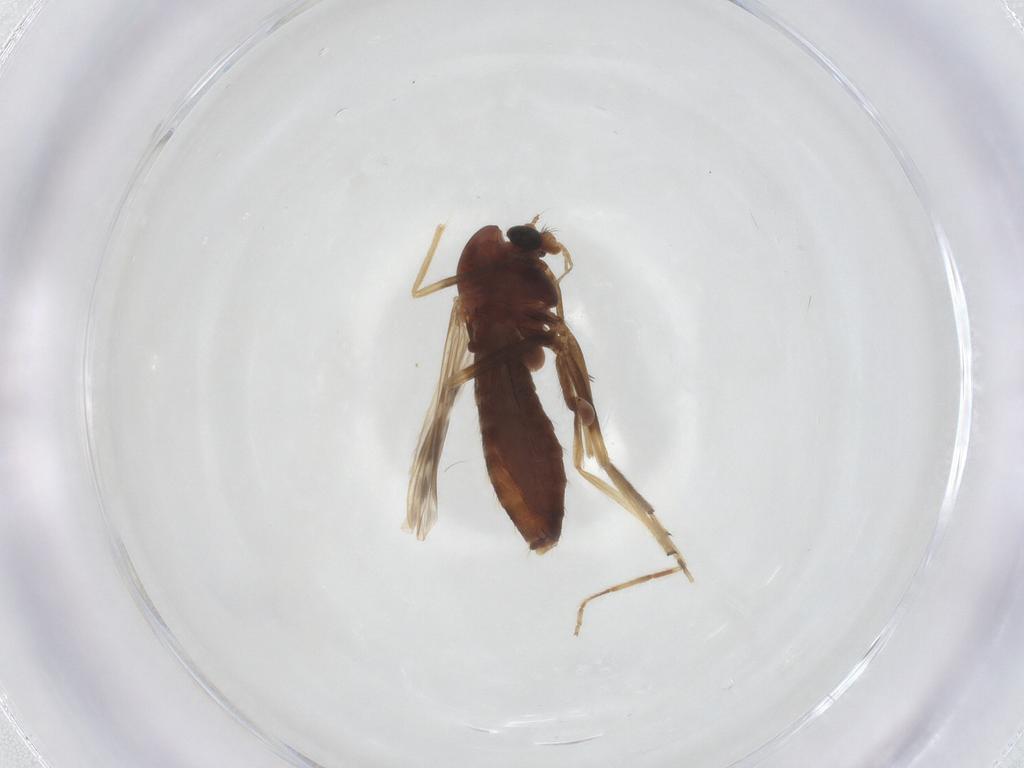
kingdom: Animalia
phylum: Arthropoda
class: Insecta
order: Diptera
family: Chironomidae
